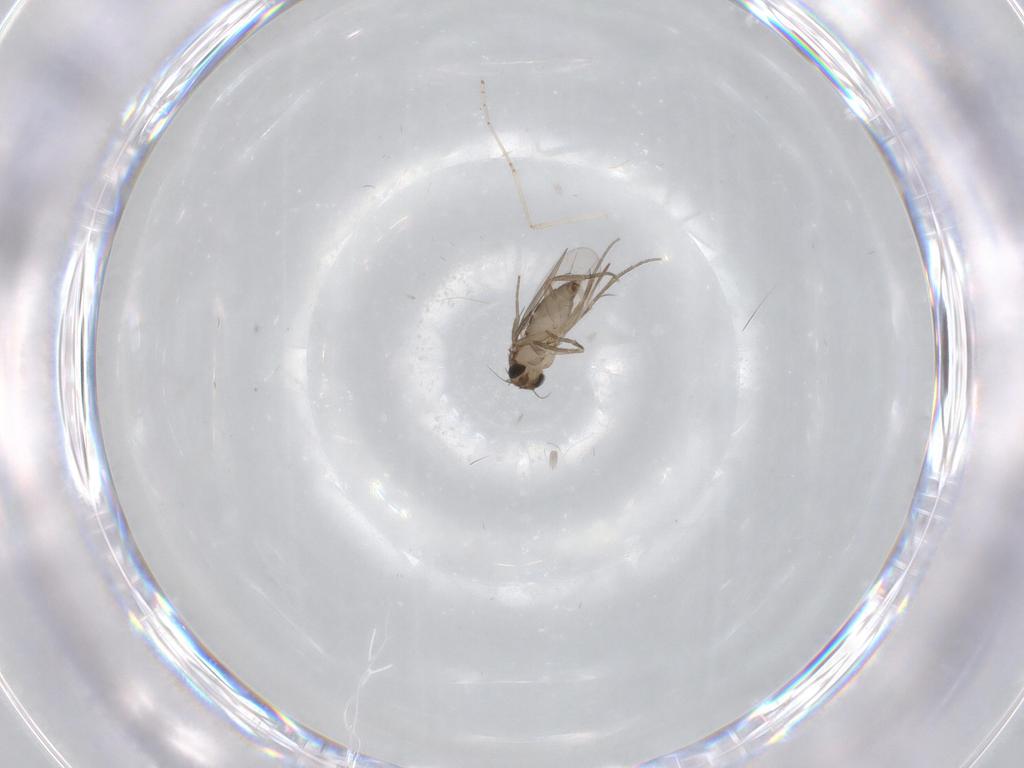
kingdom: Animalia
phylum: Arthropoda
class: Insecta
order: Diptera
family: Phoridae
